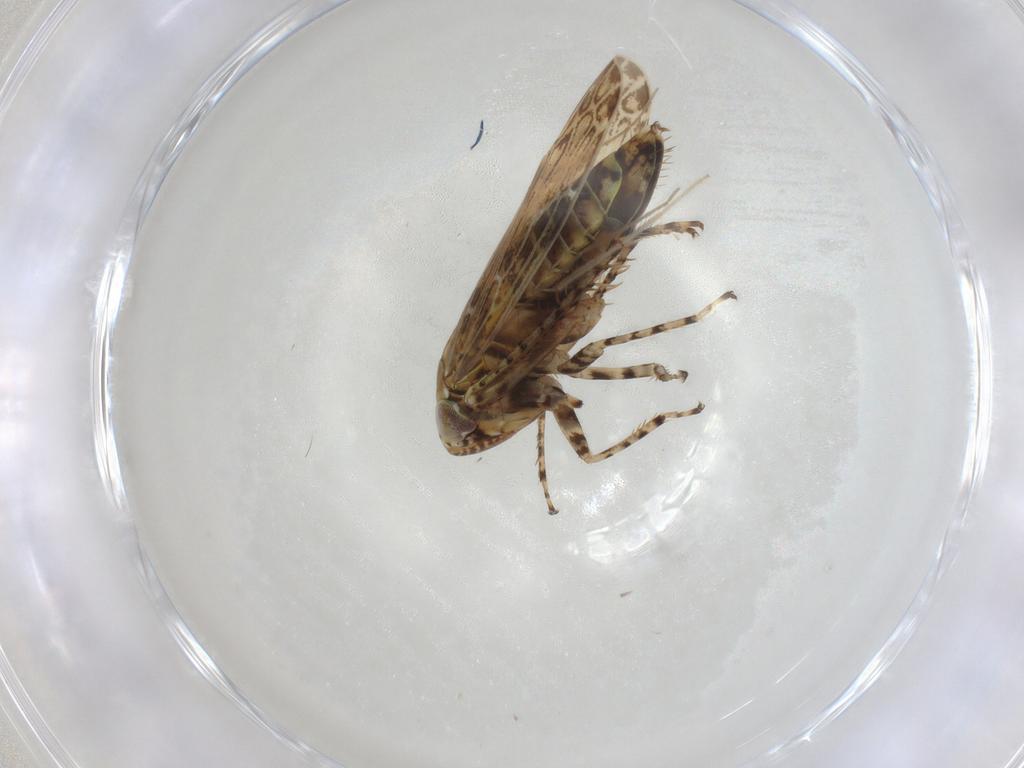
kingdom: Animalia
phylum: Arthropoda
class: Insecta
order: Hemiptera
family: Cicadellidae
